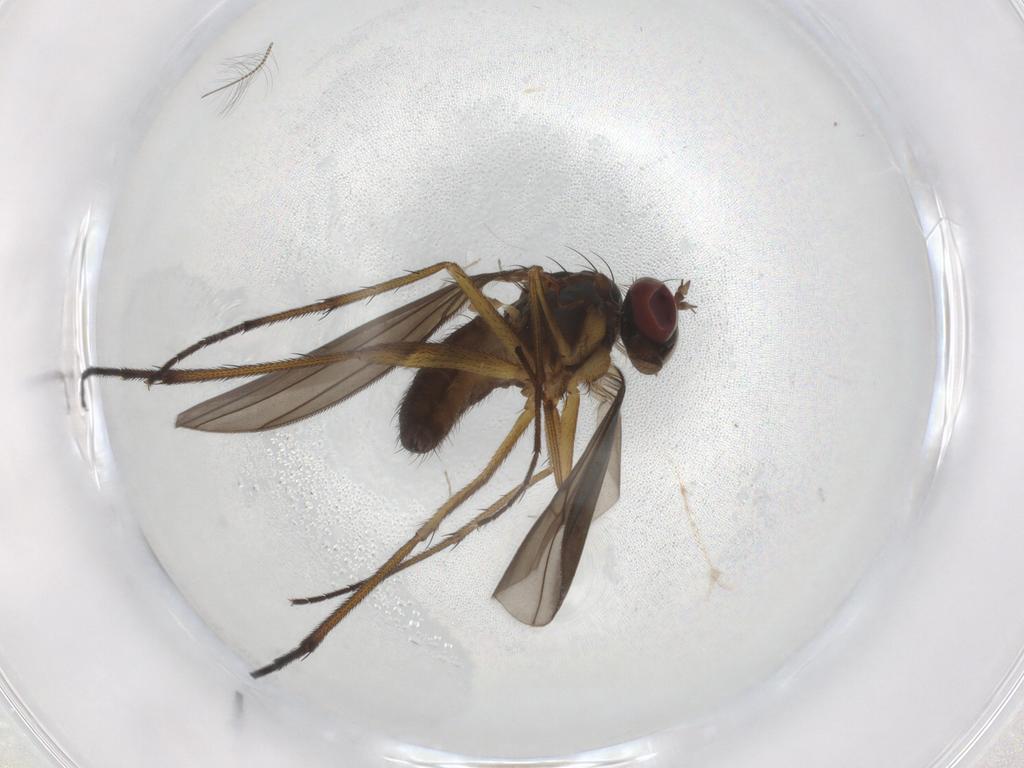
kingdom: Animalia
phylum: Arthropoda
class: Insecta
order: Diptera
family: Dolichopodidae
